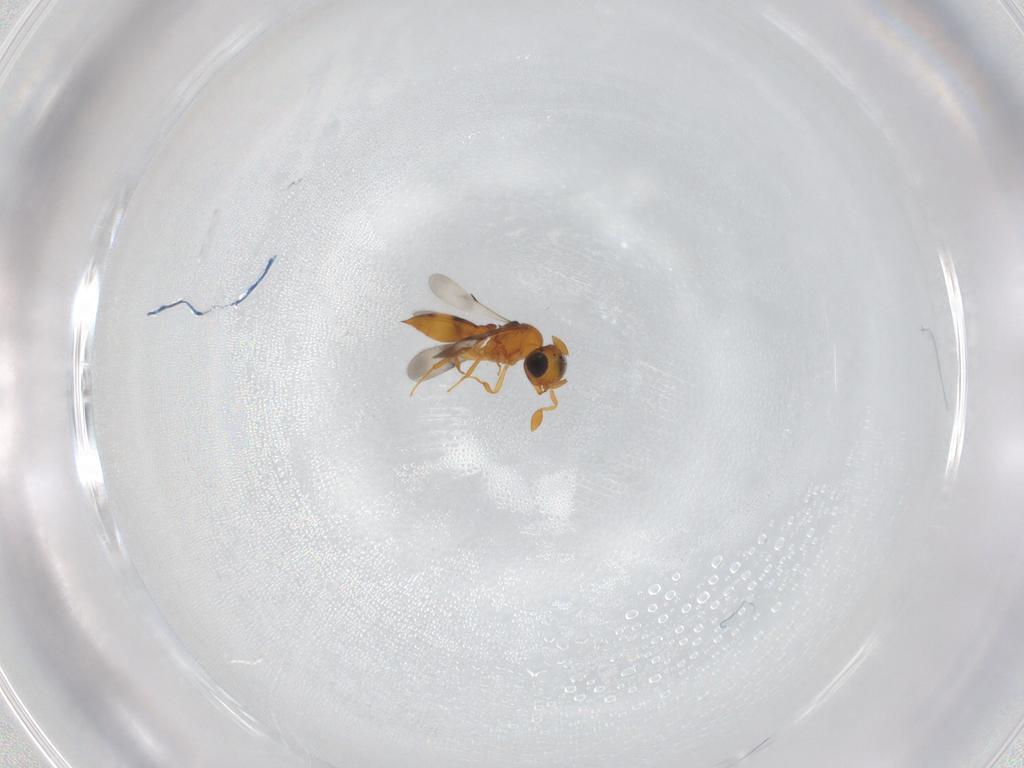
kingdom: Animalia
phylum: Arthropoda
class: Insecta
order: Hymenoptera
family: Scelionidae
